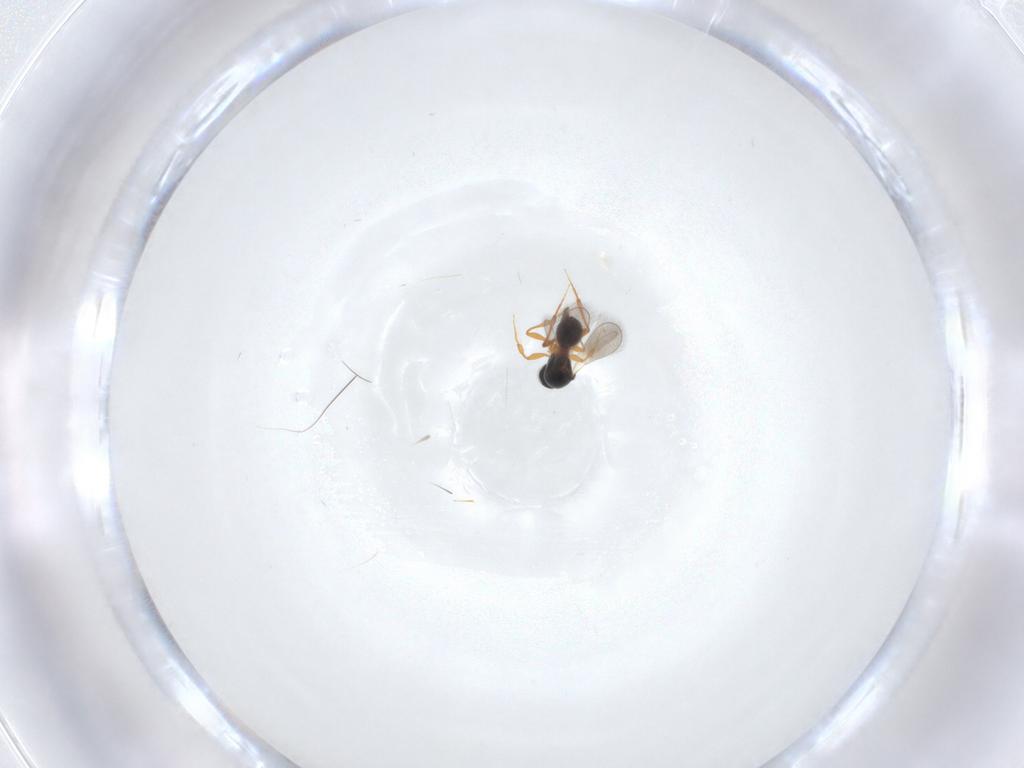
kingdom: Animalia
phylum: Arthropoda
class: Insecta
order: Hymenoptera
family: Platygastridae
